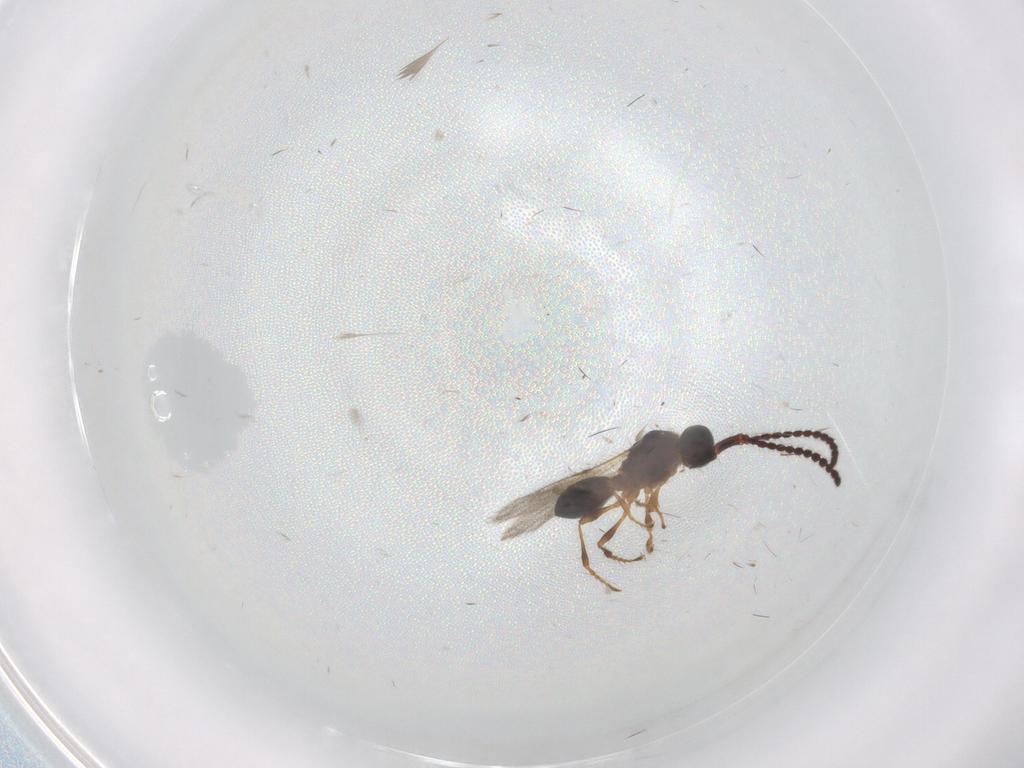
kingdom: Animalia
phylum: Arthropoda
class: Insecta
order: Hymenoptera
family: Diapriidae
